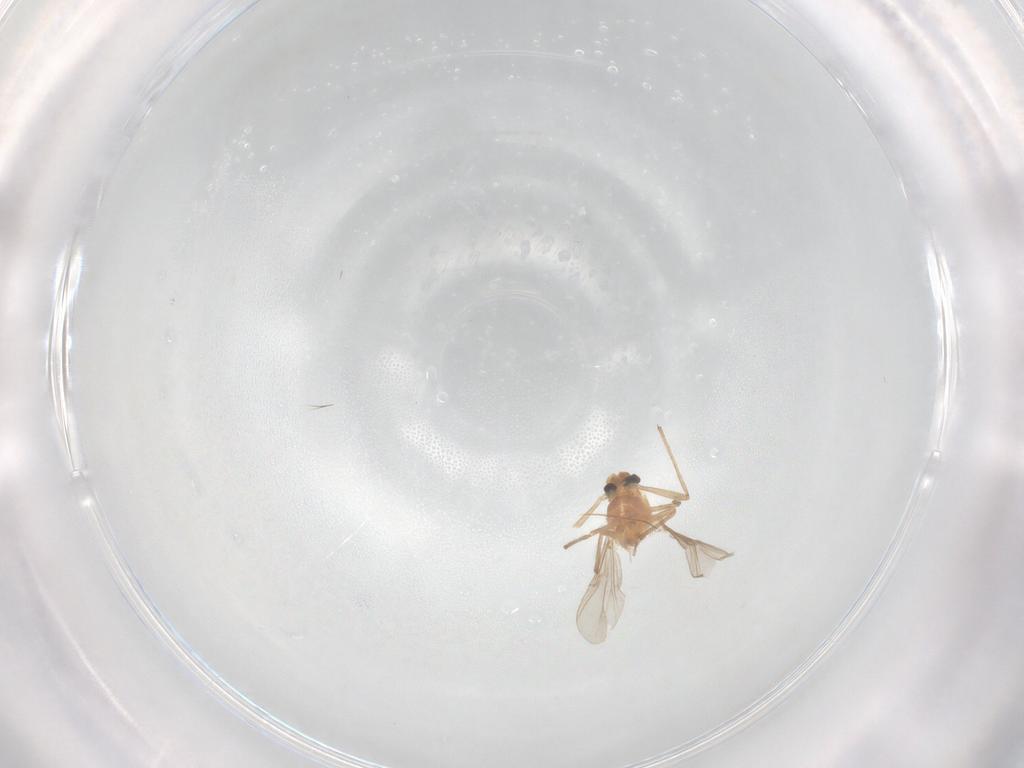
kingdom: Animalia
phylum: Arthropoda
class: Insecta
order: Diptera
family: Chironomidae
